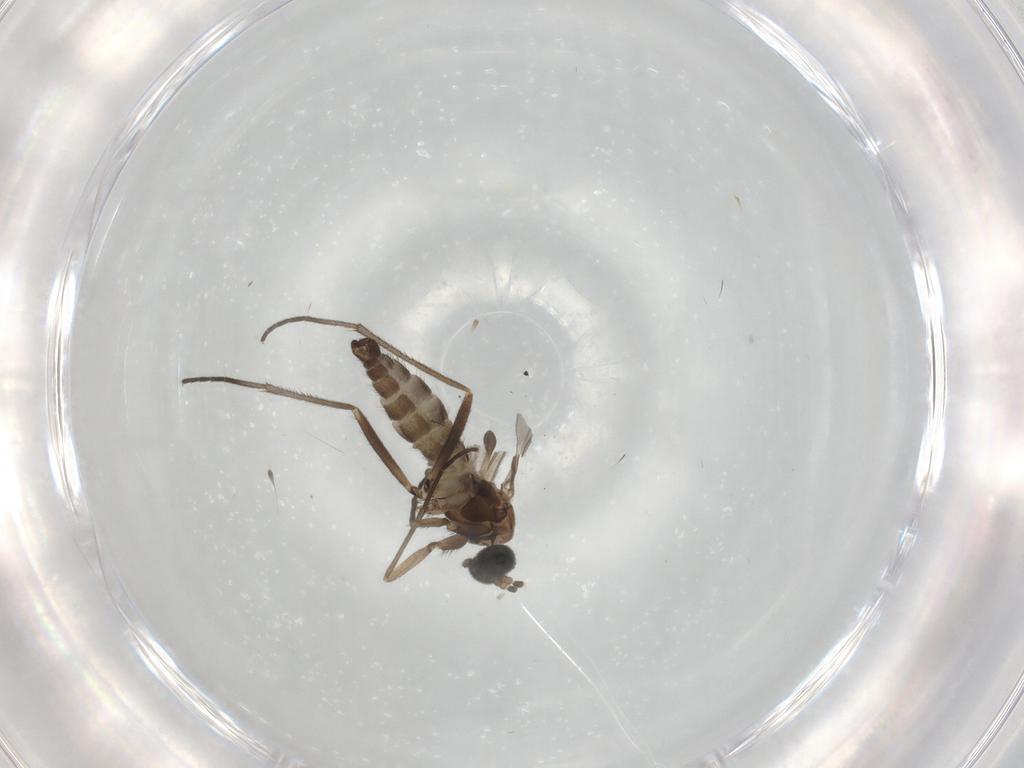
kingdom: Animalia
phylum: Arthropoda
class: Insecta
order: Diptera
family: Sciaridae
